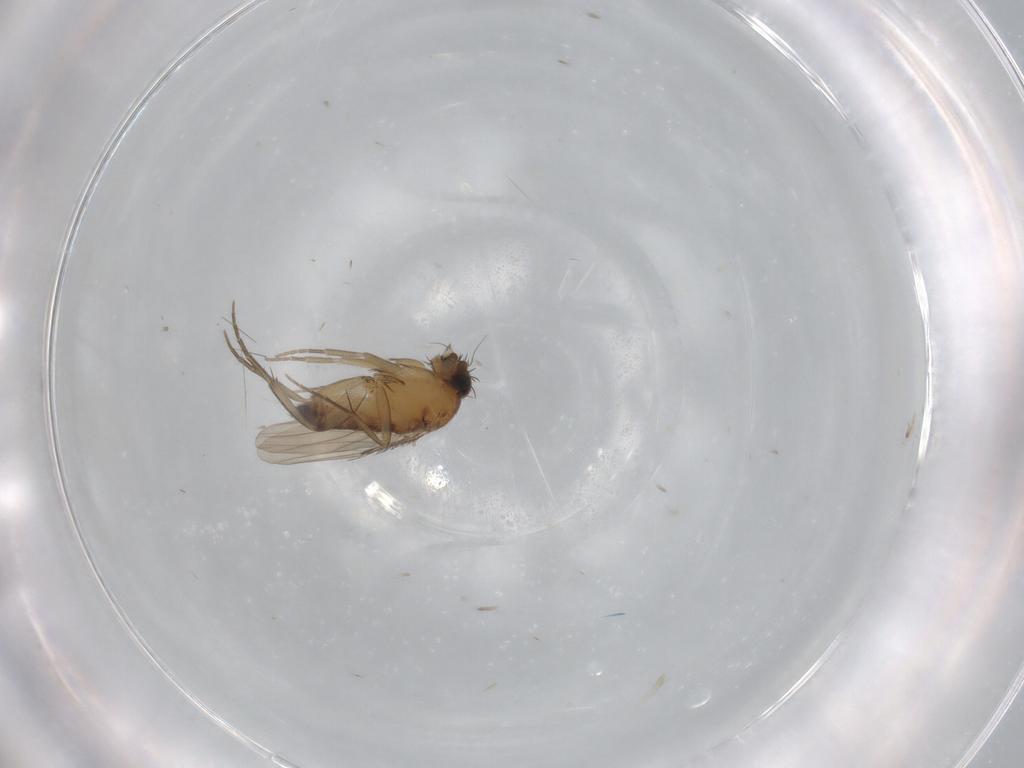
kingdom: Animalia
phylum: Arthropoda
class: Insecta
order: Diptera
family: Phoridae
